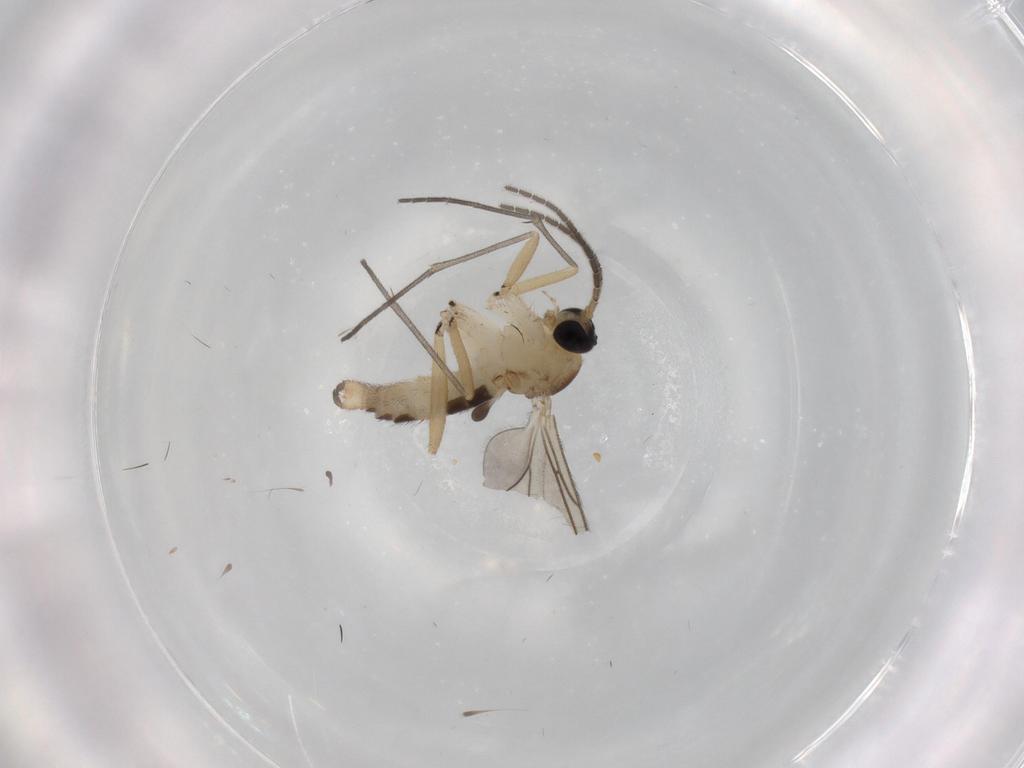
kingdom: Animalia
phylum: Arthropoda
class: Insecta
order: Diptera
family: Sciaridae
